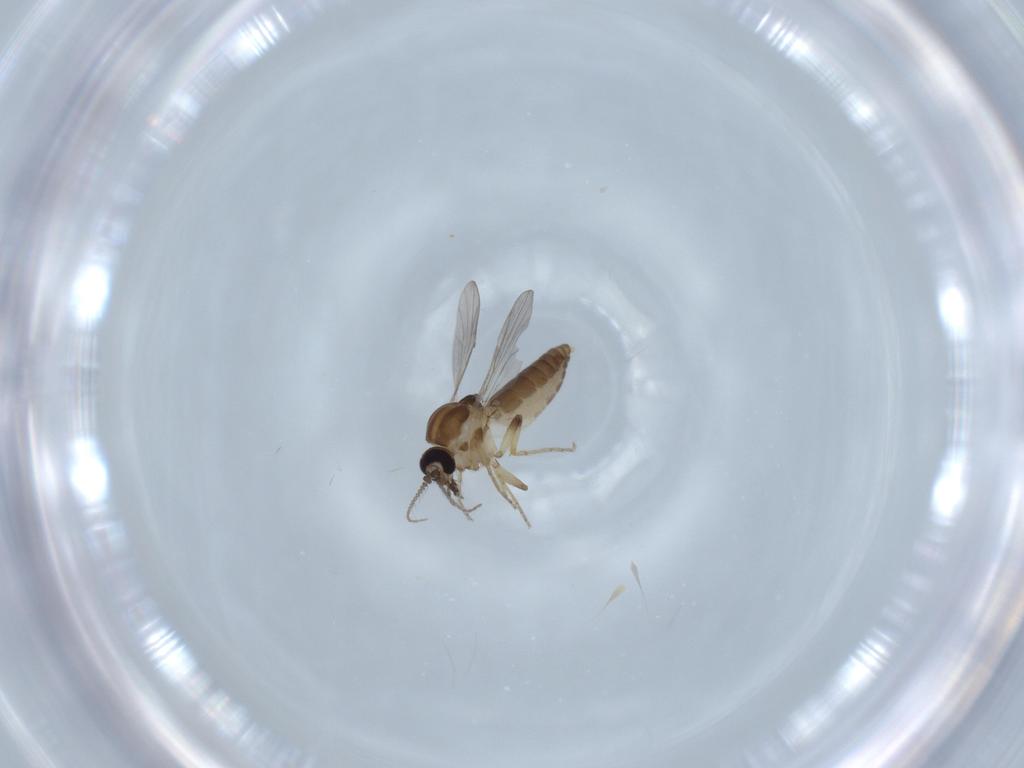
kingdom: Animalia
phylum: Arthropoda
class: Insecta
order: Diptera
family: Ceratopogonidae
